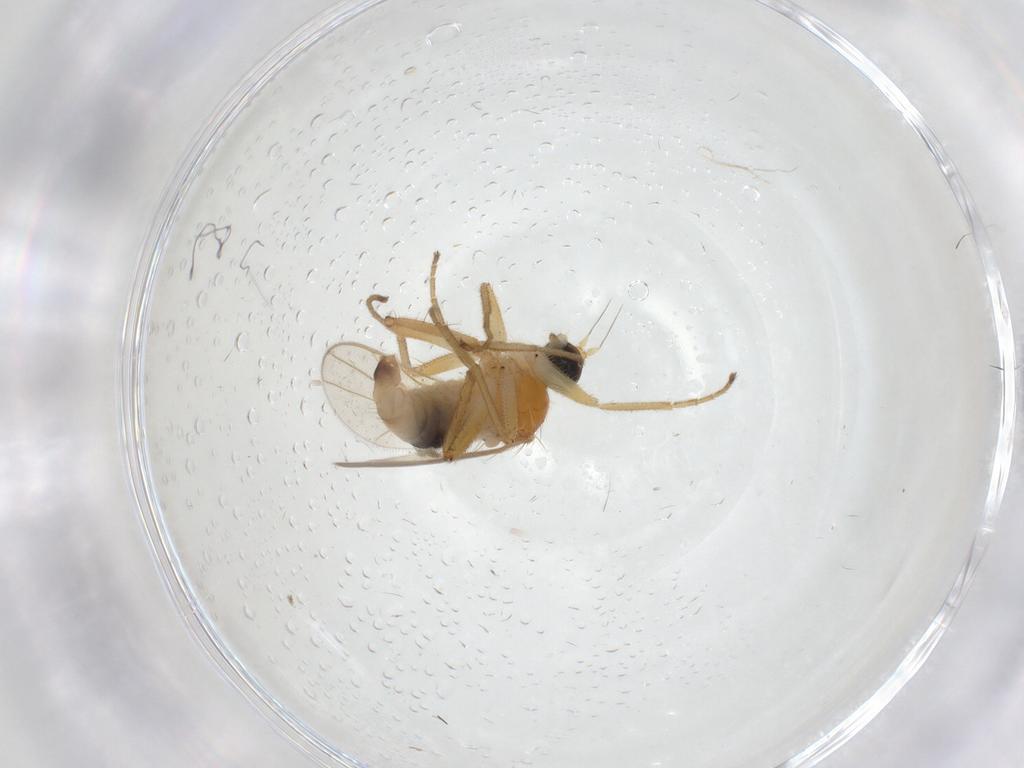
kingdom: Animalia
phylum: Arthropoda
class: Insecta
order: Diptera
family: Hybotidae
